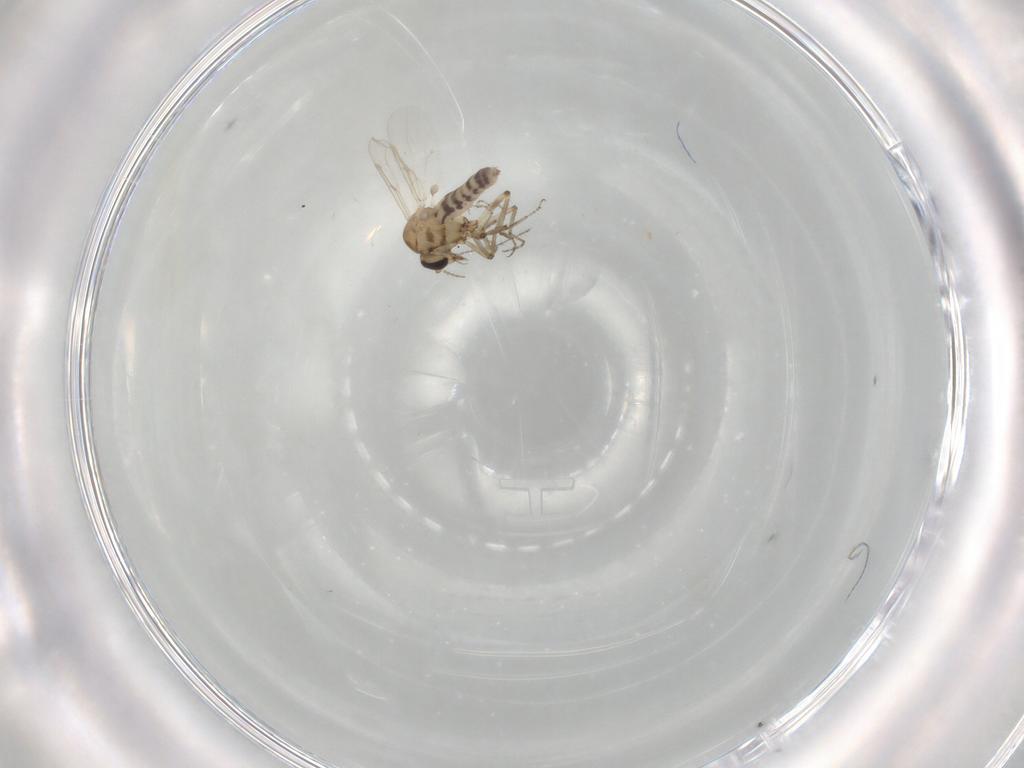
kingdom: Animalia
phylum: Arthropoda
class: Insecta
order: Diptera
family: Ceratopogonidae
